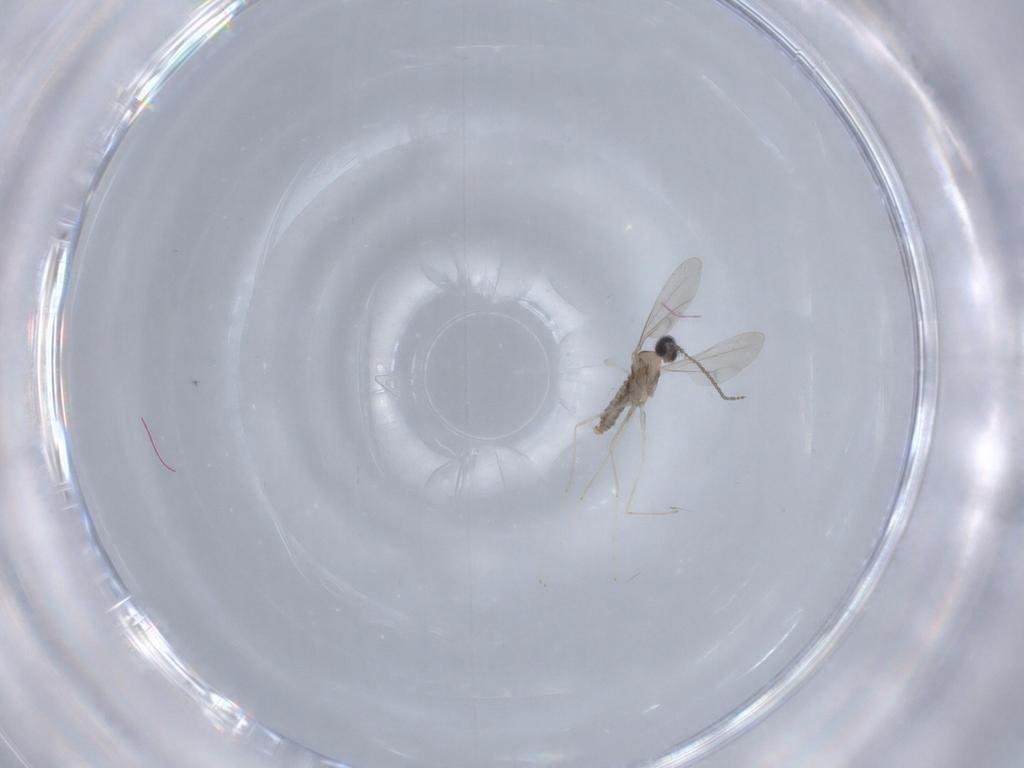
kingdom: Animalia
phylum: Arthropoda
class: Insecta
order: Diptera
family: Cecidomyiidae
